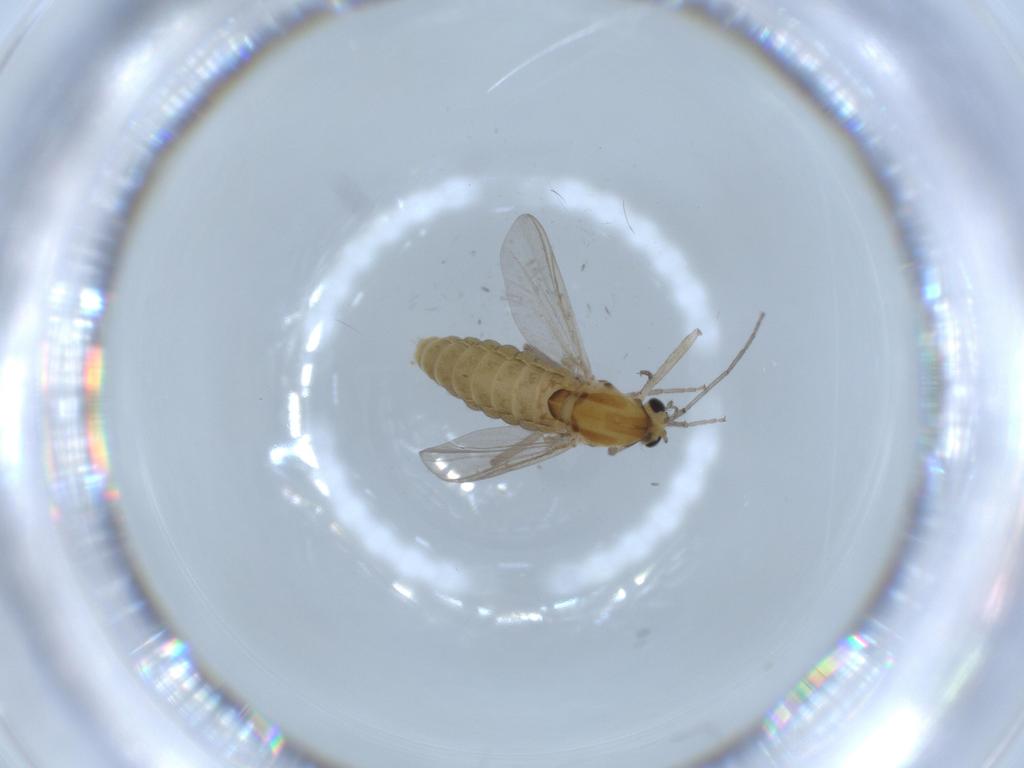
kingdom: Animalia
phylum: Arthropoda
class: Insecta
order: Diptera
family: Chironomidae
